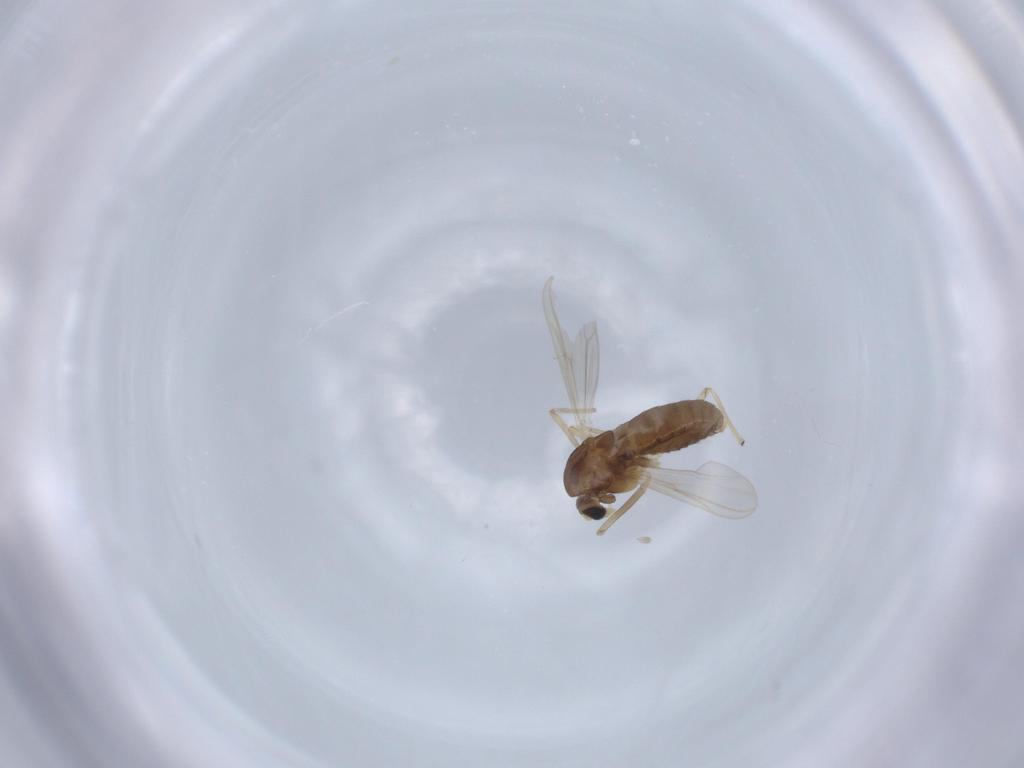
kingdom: Animalia
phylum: Arthropoda
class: Insecta
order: Diptera
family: Chironomidae
